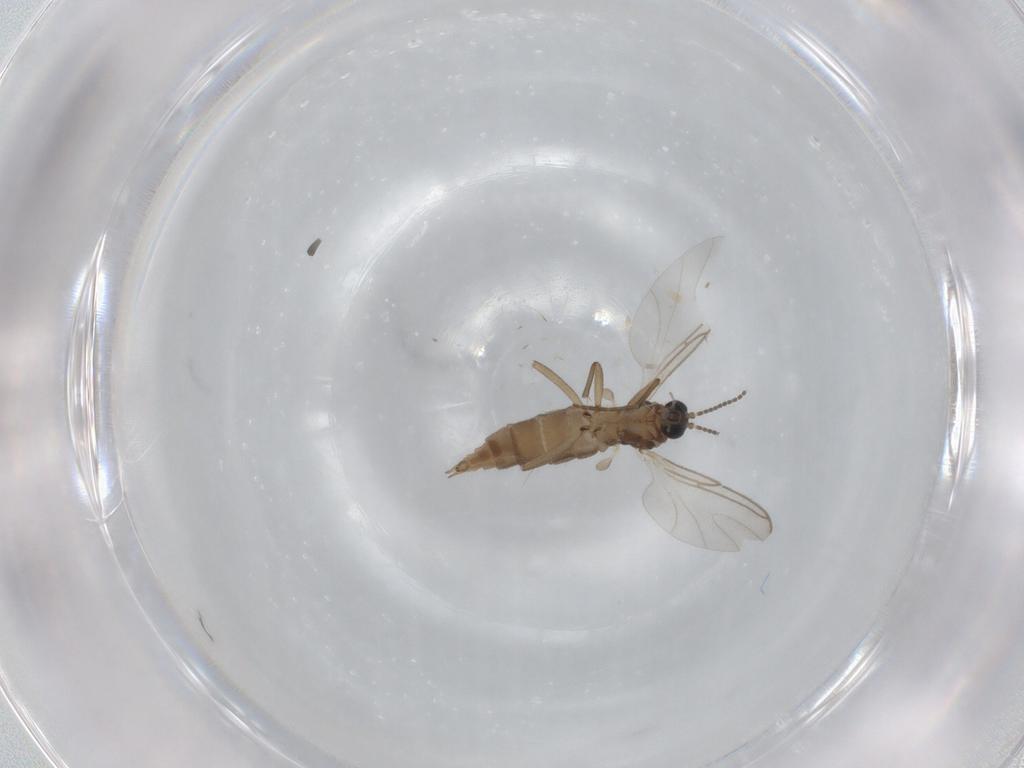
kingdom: Animalia
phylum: Arthropoda
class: Insecta
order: Diptera
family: Sciaridae
